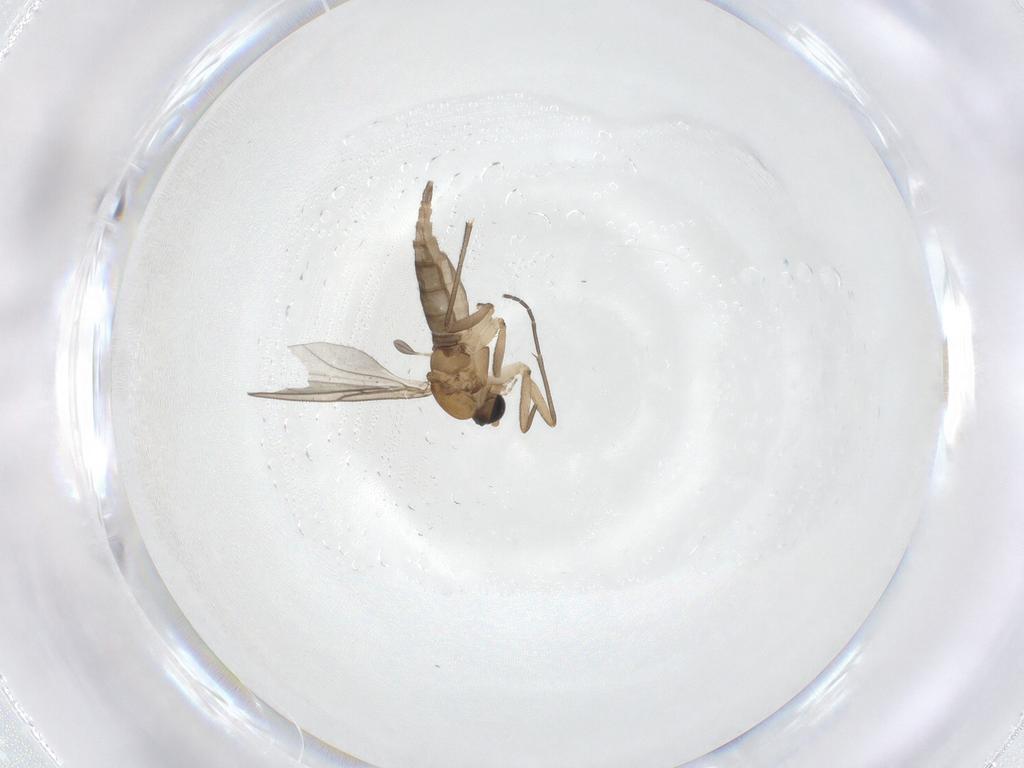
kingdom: Animalia
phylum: Arthropoda
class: Insecta
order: Diptera
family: Sciaridae
